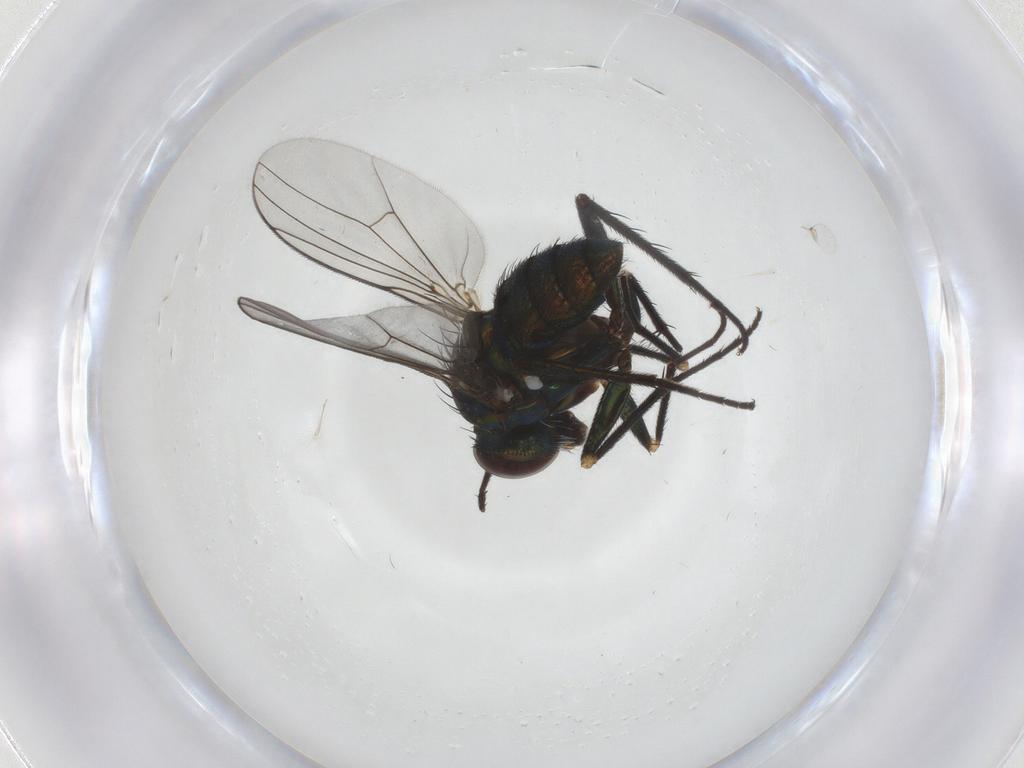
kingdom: Animalia
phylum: Arthropoda
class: Insecta
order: Diptera
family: Dolichopodidae
